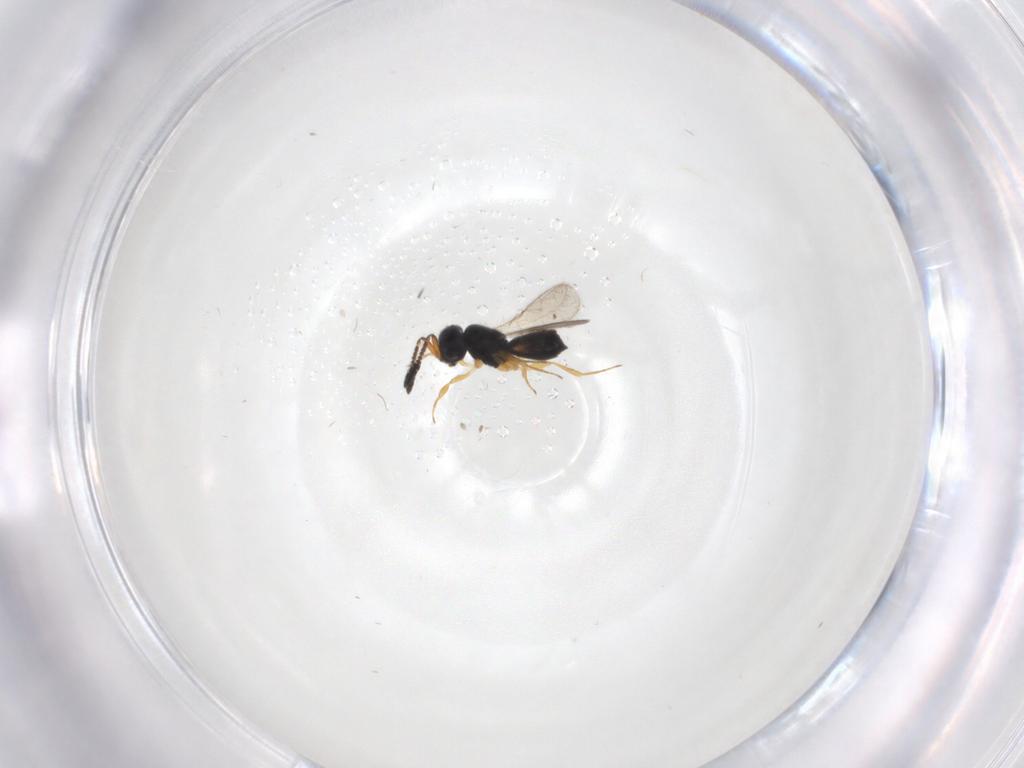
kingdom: Animalia
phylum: Arthropoda
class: Insecta
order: Hymenoptera
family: Scelionidae
